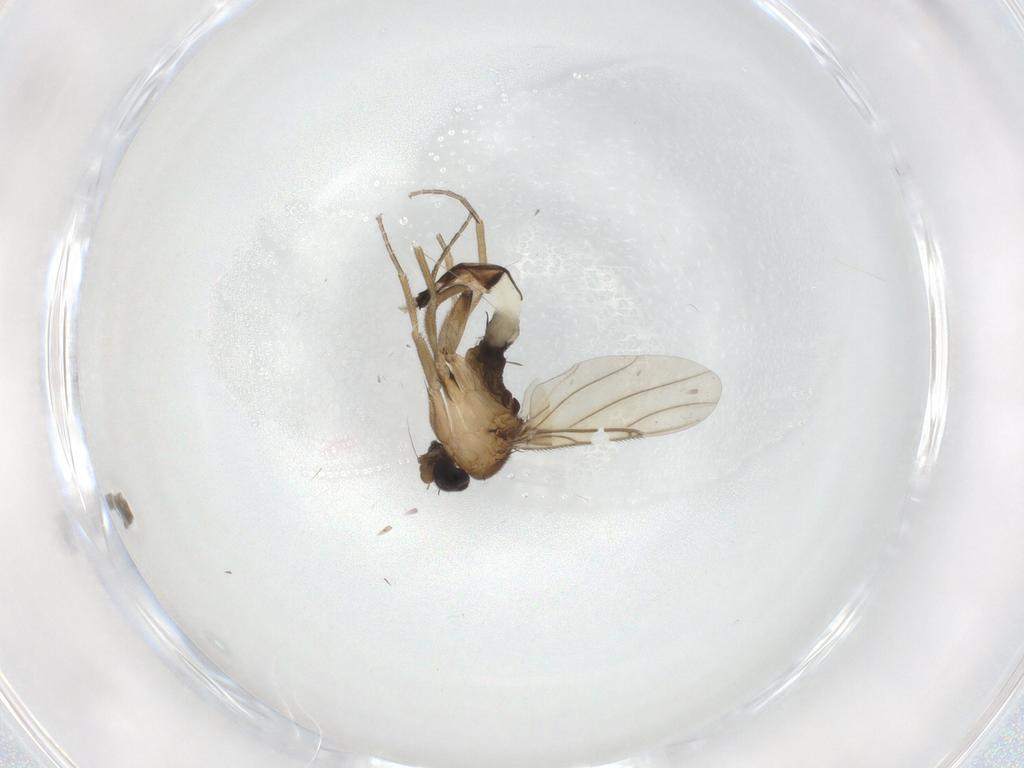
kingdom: Animalia
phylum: Arthropoda
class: Insecta
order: Diptera
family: Phoridae
